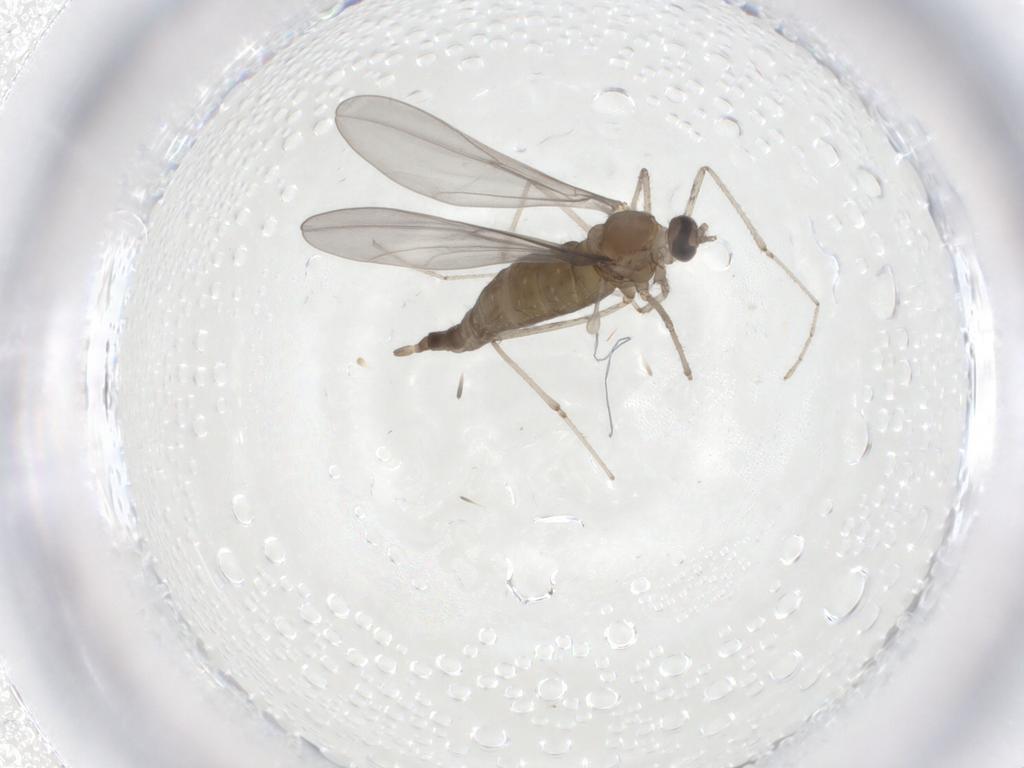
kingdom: Animalia
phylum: Arthropoda
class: Insecta
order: Diptera
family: Cecidomyiidae
